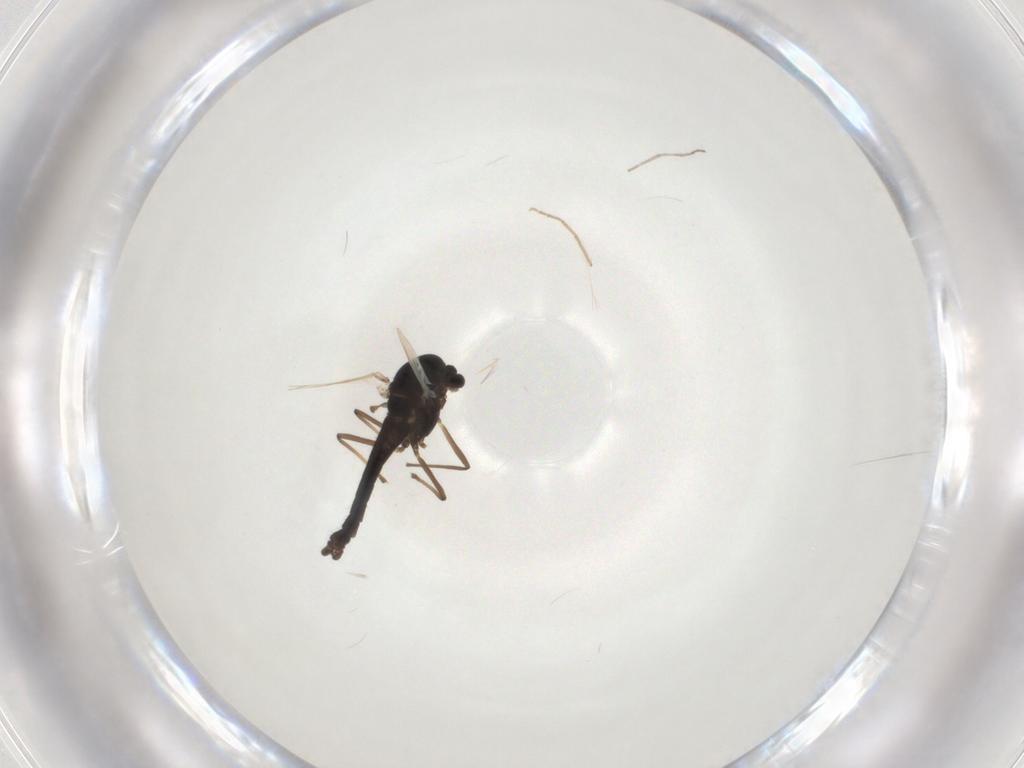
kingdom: Animalia
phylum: Arthropoda
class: Insecta
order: Diptera
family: Chironomidae
